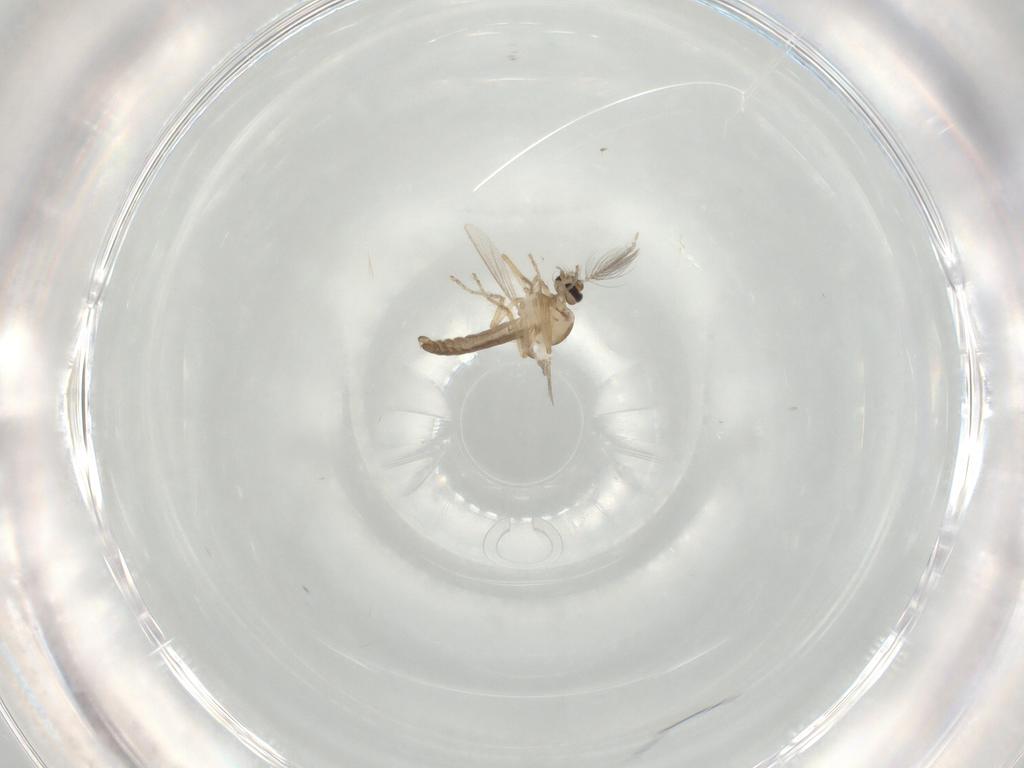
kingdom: Animalia
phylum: Arthropoda
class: Insecta
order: Diptera
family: Ceratopogonidae
